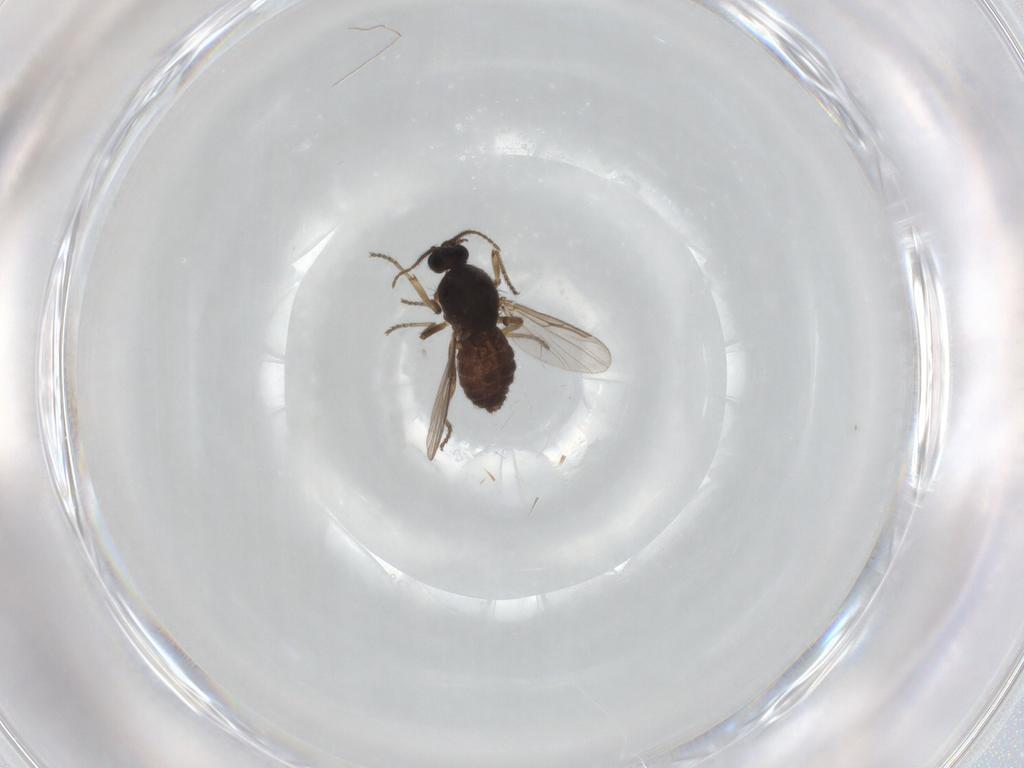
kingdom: Animalia
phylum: Arthropoda
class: Insecta
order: Diptera
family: Ceratopogonidae
